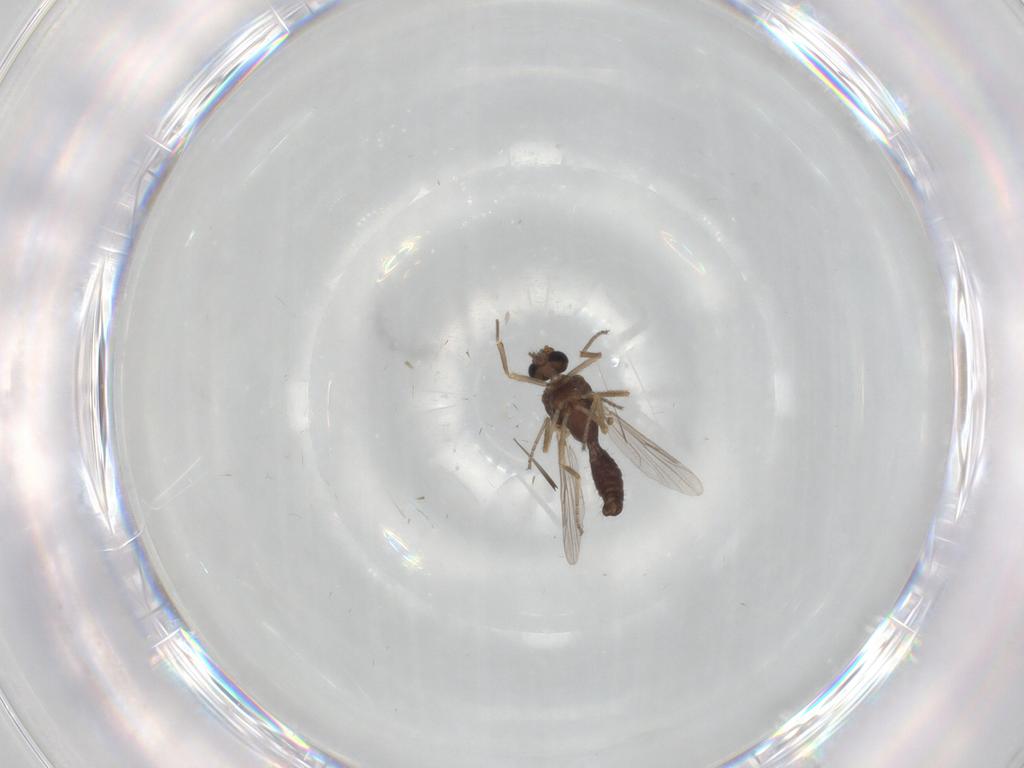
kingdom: Animalia
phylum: Arthropoda
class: Insecta
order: Diptera
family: Ceratopogonidae
